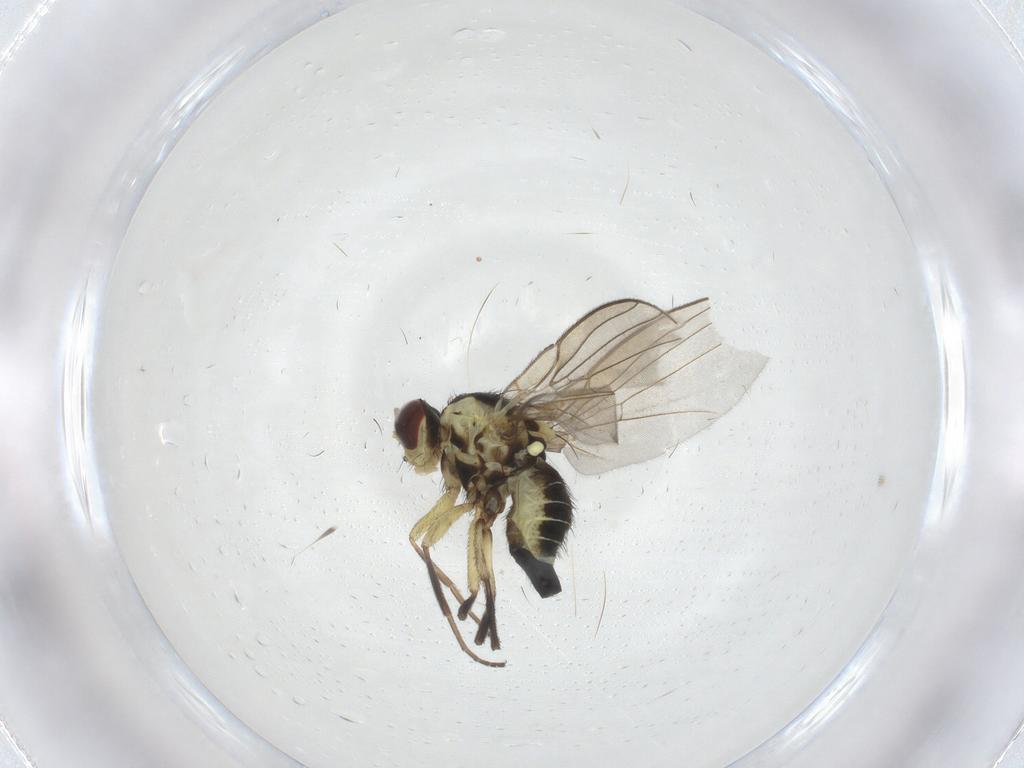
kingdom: Animalia
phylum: Arthropoda
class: Insecta
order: Diptera
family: Agromyzidae
